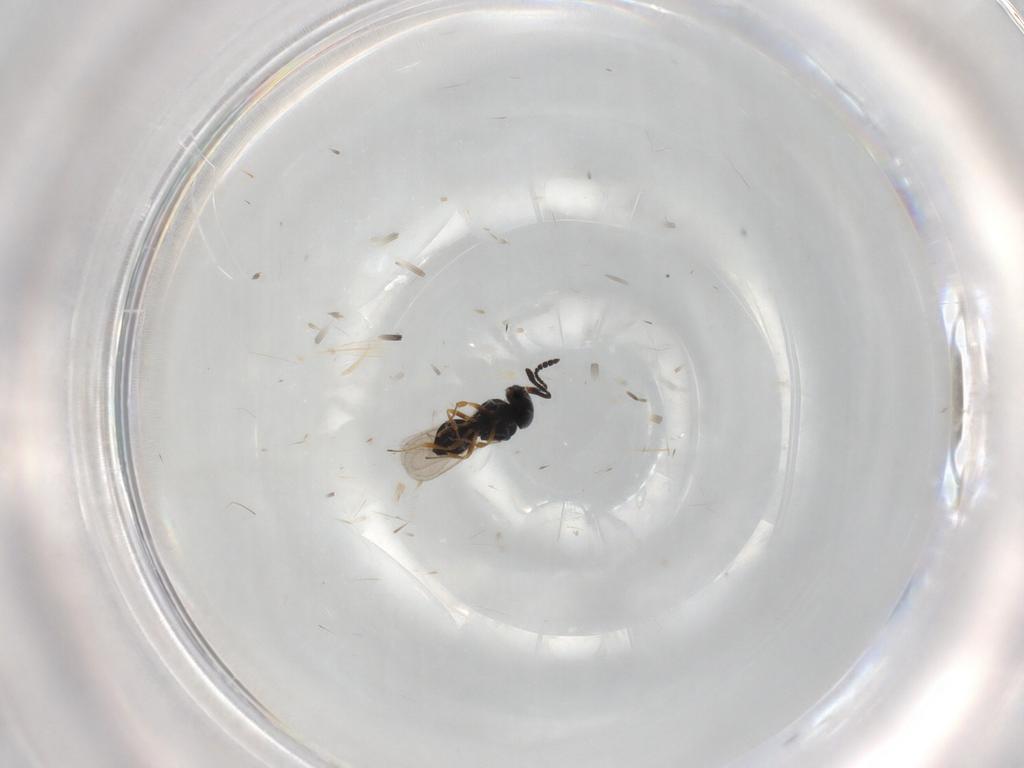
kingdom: Animalia
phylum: Arthropoda
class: Insecta
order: Hymenoptera
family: Scelionidae
